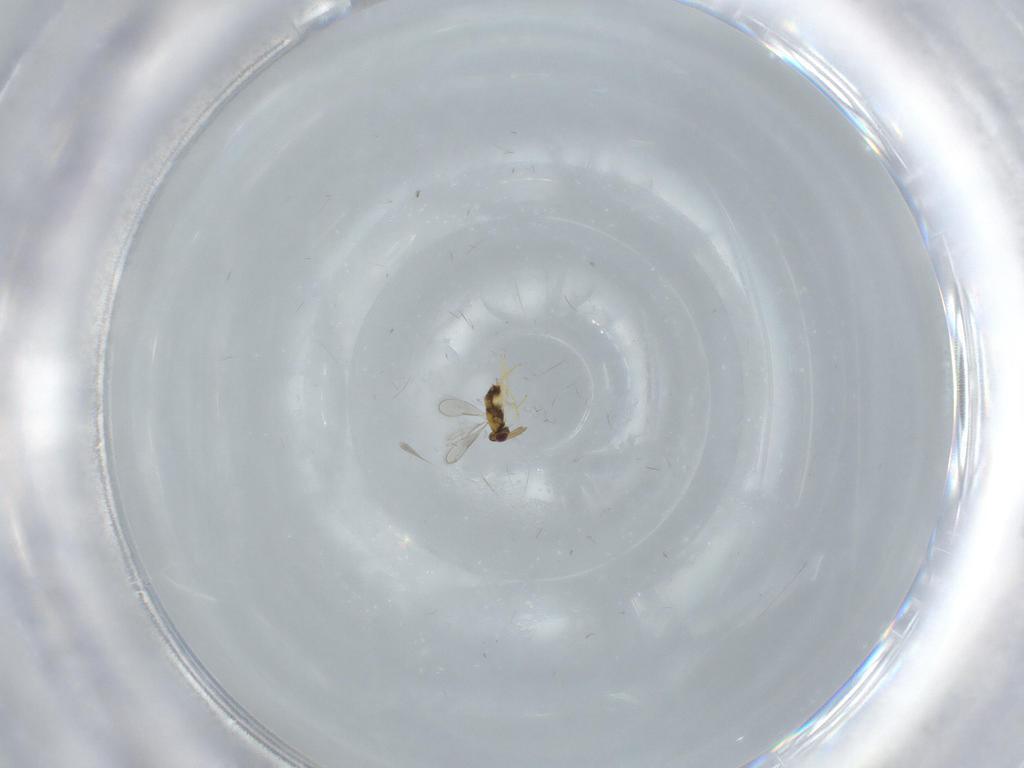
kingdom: Animalia
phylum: Arthropoda
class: Insecta
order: Hymenoptera
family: Aphelinidae
